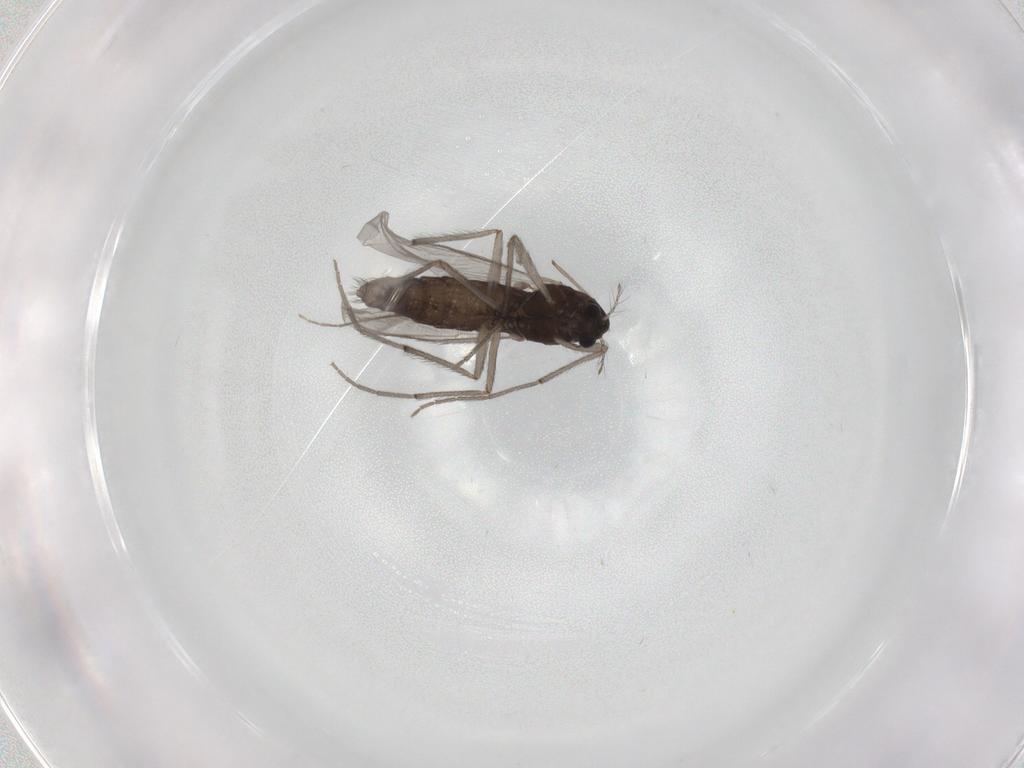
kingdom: Animalia
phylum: Arthropoda
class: Insecta
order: Diptera
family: Chironomidae
